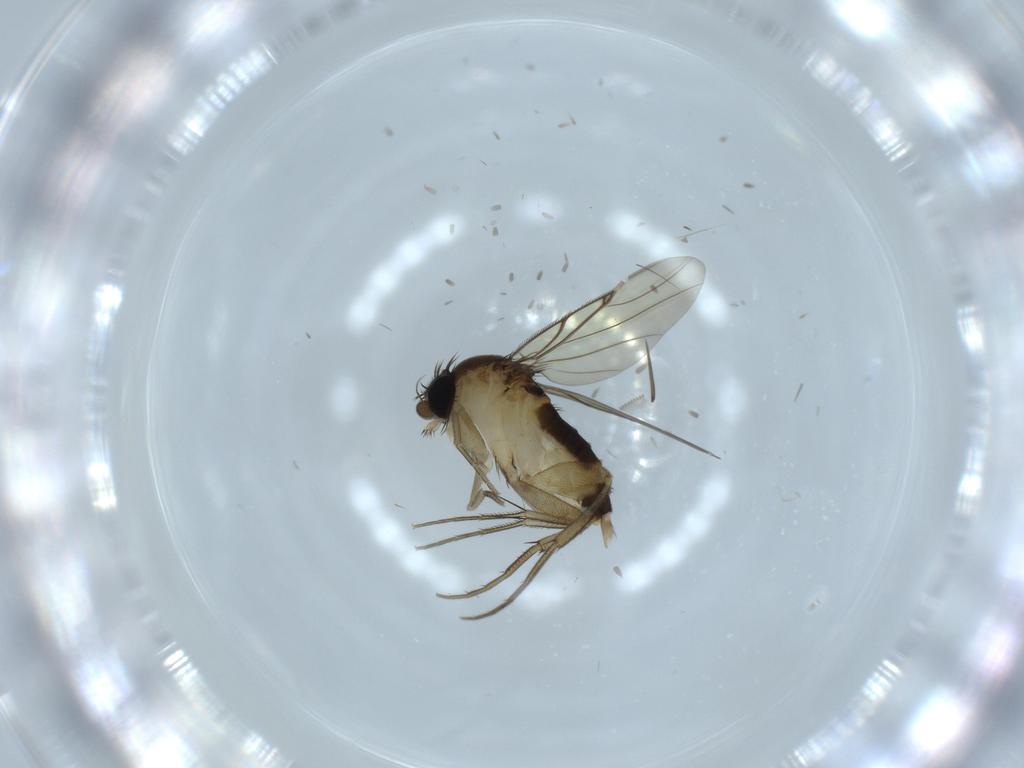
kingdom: Animalia
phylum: Arthropoda
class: Insecta
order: Diptera
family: Phoridae
